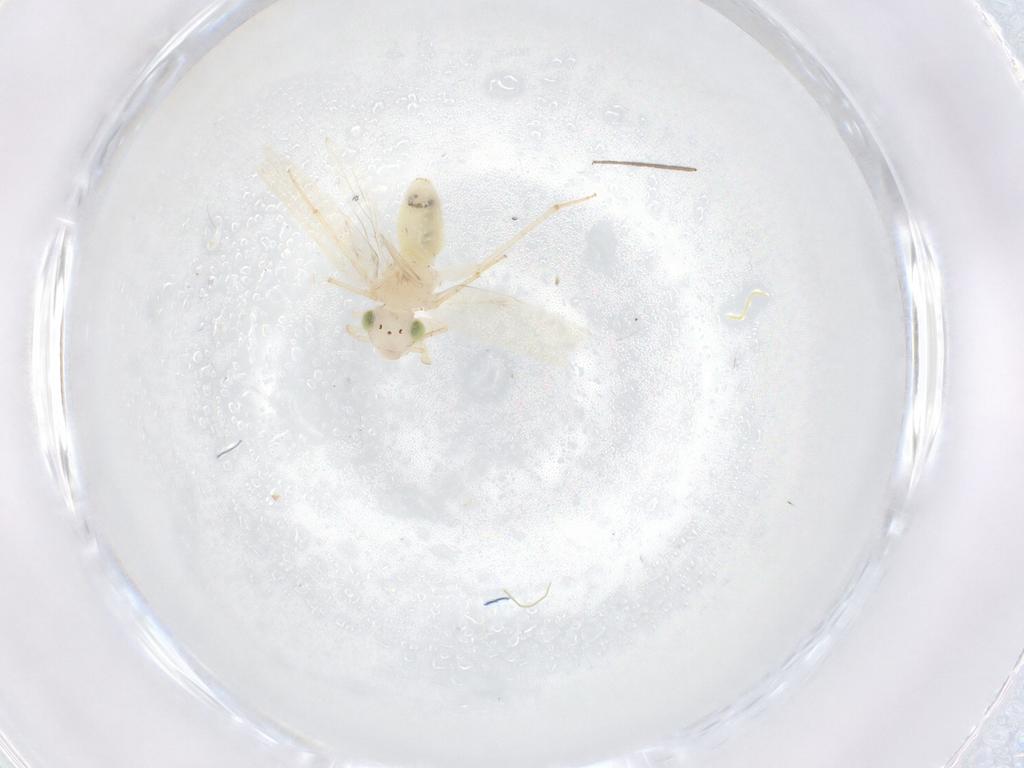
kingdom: Animalia
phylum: Arthropoda
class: Insecta
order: Psocodea
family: Lepidopsocidae
